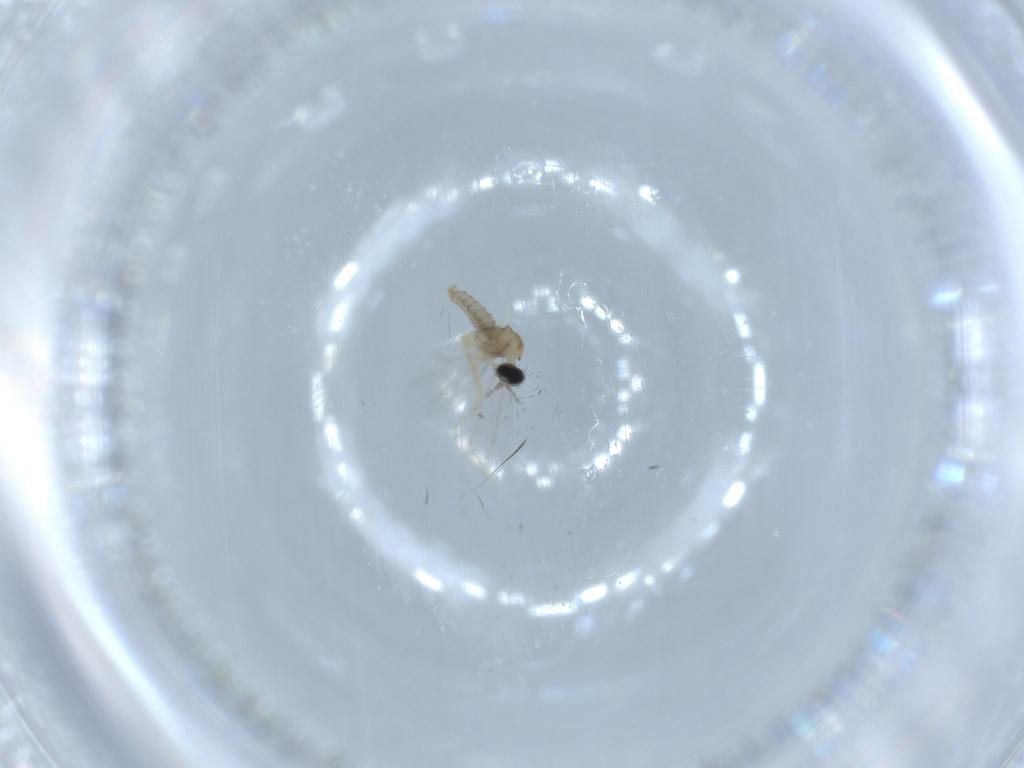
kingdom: Animalia
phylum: Arthropoda
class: Insecta
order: Diptera
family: Cecidomyiidae
